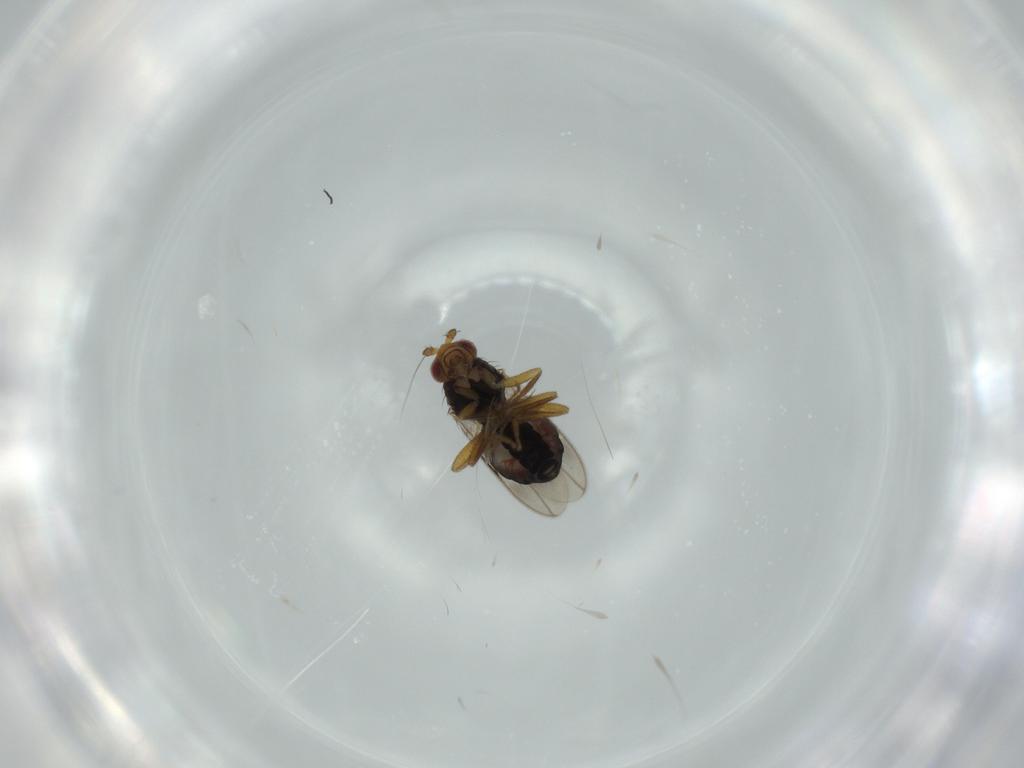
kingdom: Animalia
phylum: Arthropoda
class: Insecta
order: Diptera
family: Sphaeroceridae
